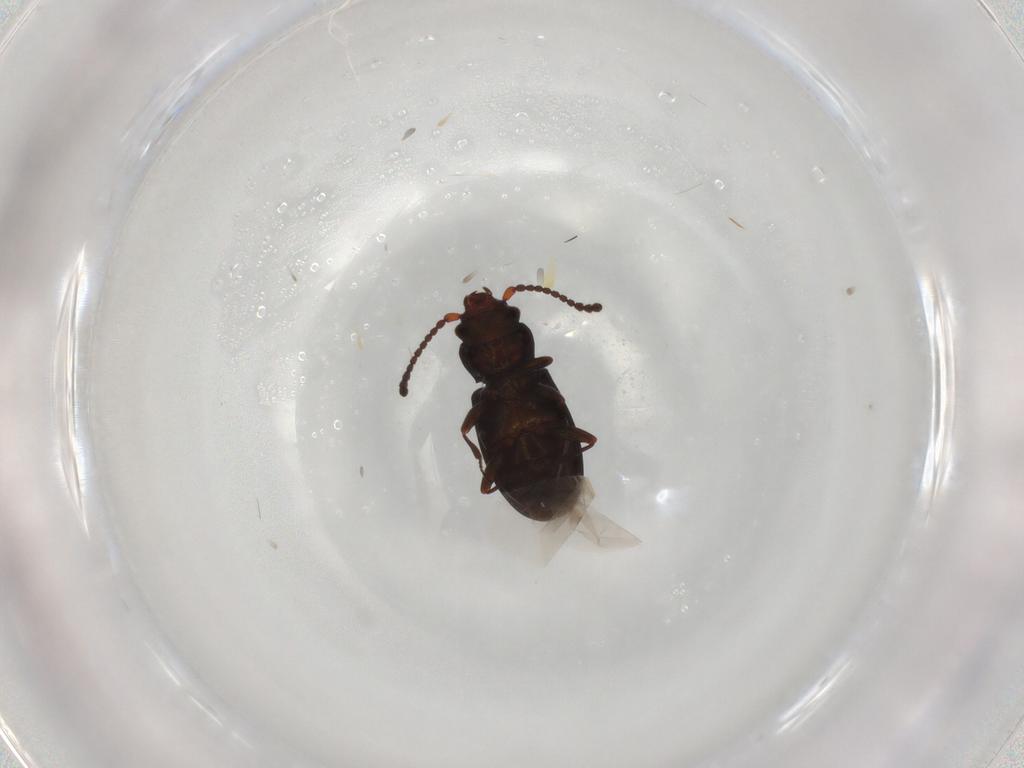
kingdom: Animalia
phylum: Arthropoda
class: Insecta
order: Coleoptera
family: Laemophloeidae
